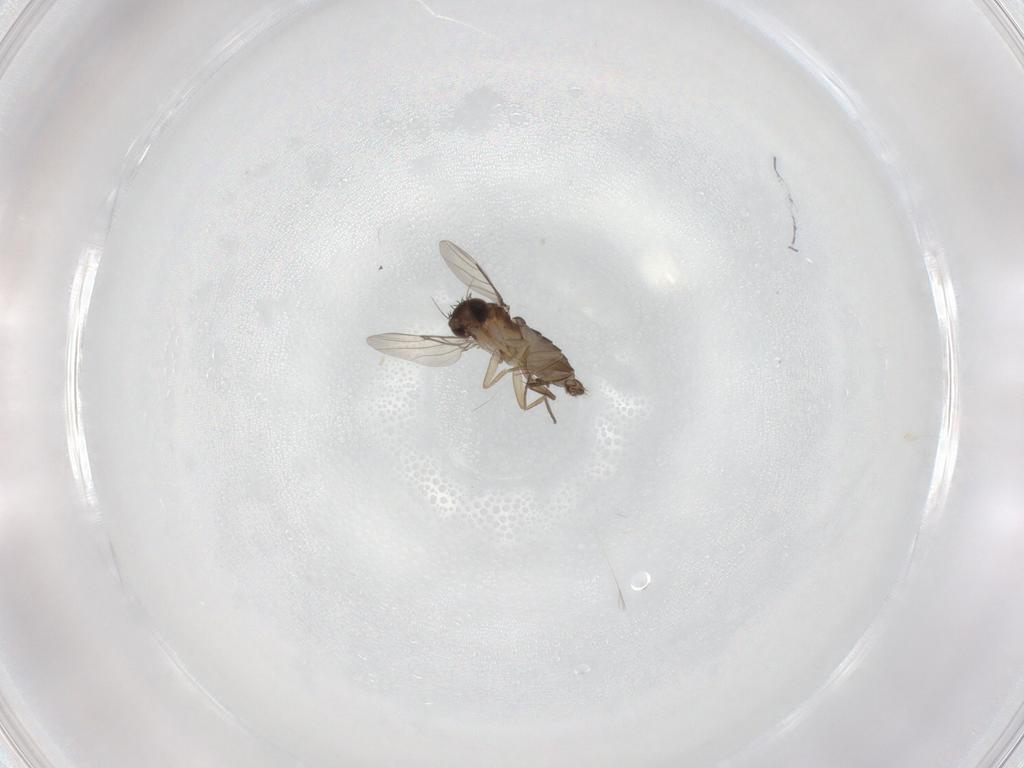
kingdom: Animalia
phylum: Arthropoda
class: Insecta
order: Diptera
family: Phoridae
